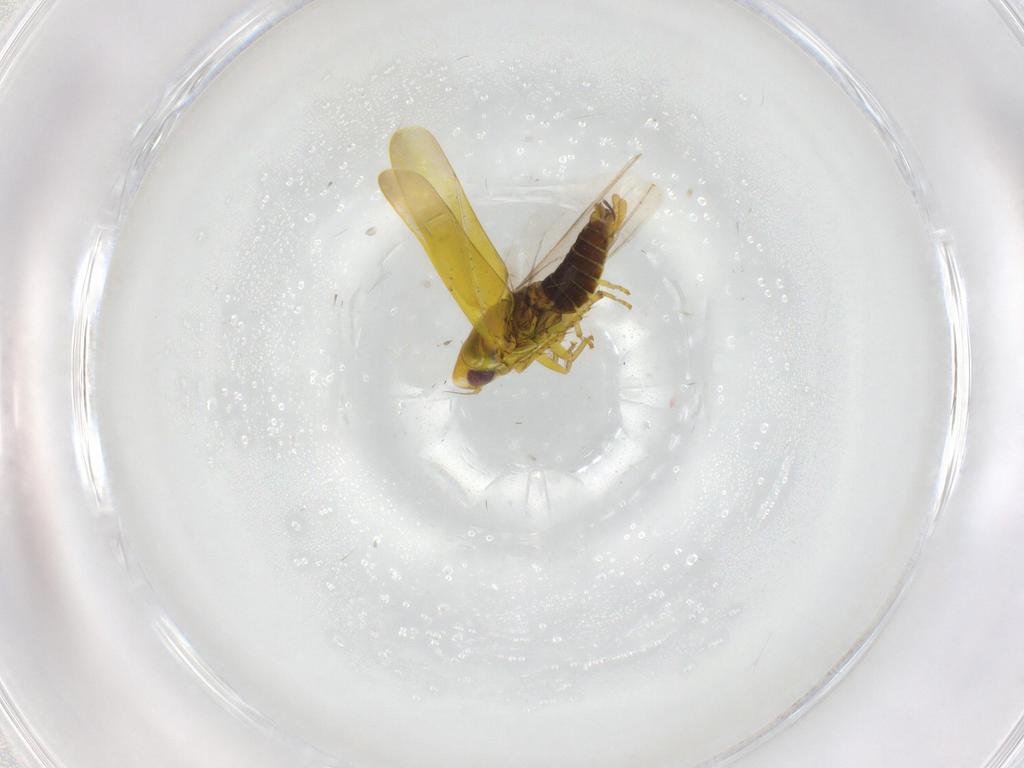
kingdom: Animalia
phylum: Arthropoda
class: Insecta
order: Hemiptera
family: Cicadellidae
